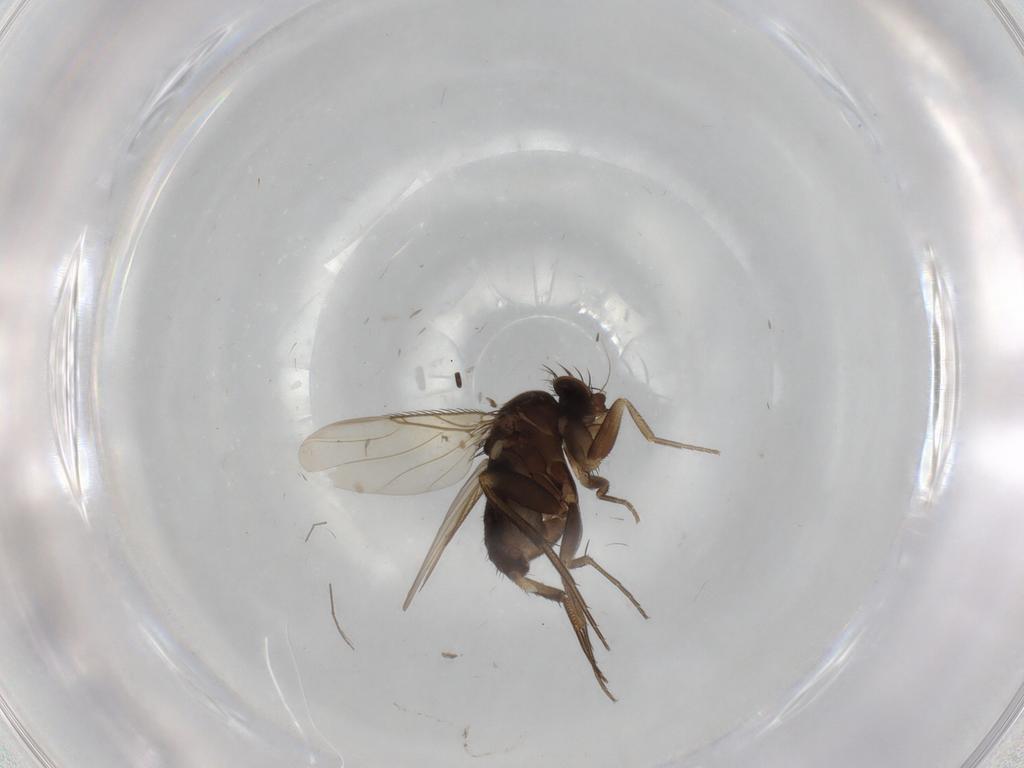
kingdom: Animalia
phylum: Arthropoda
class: Insecta
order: Diptera
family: Phoridae
